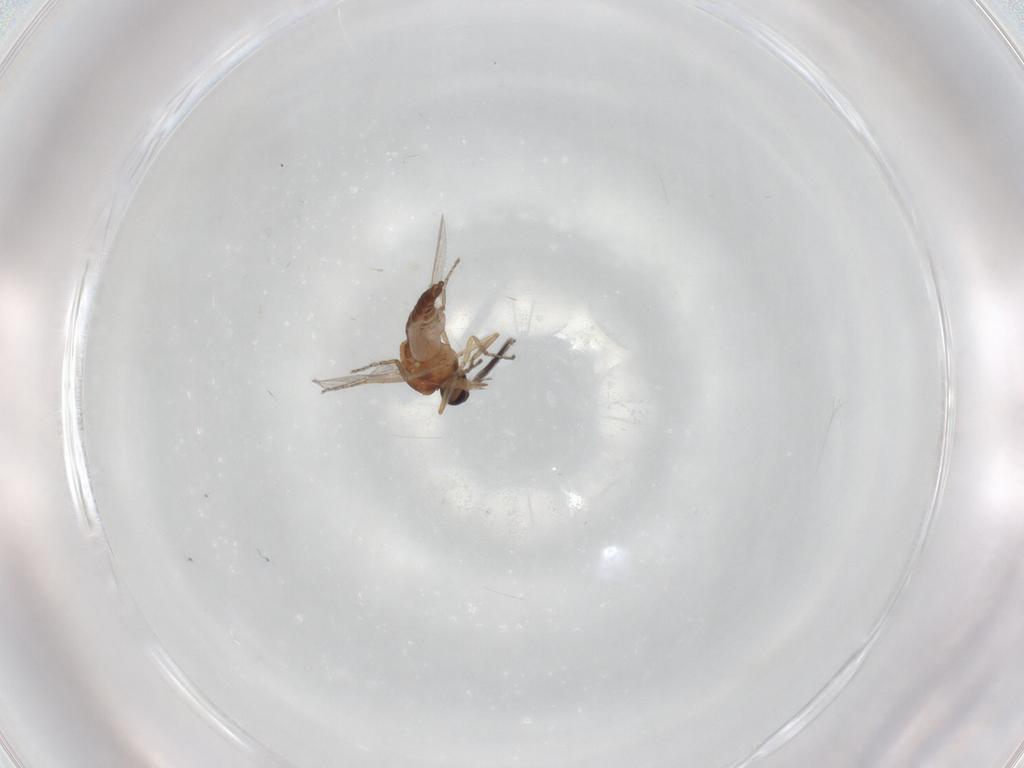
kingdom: Animalia
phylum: Arthropoda
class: Insecta
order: Diptera
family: Ceratopogonidae
